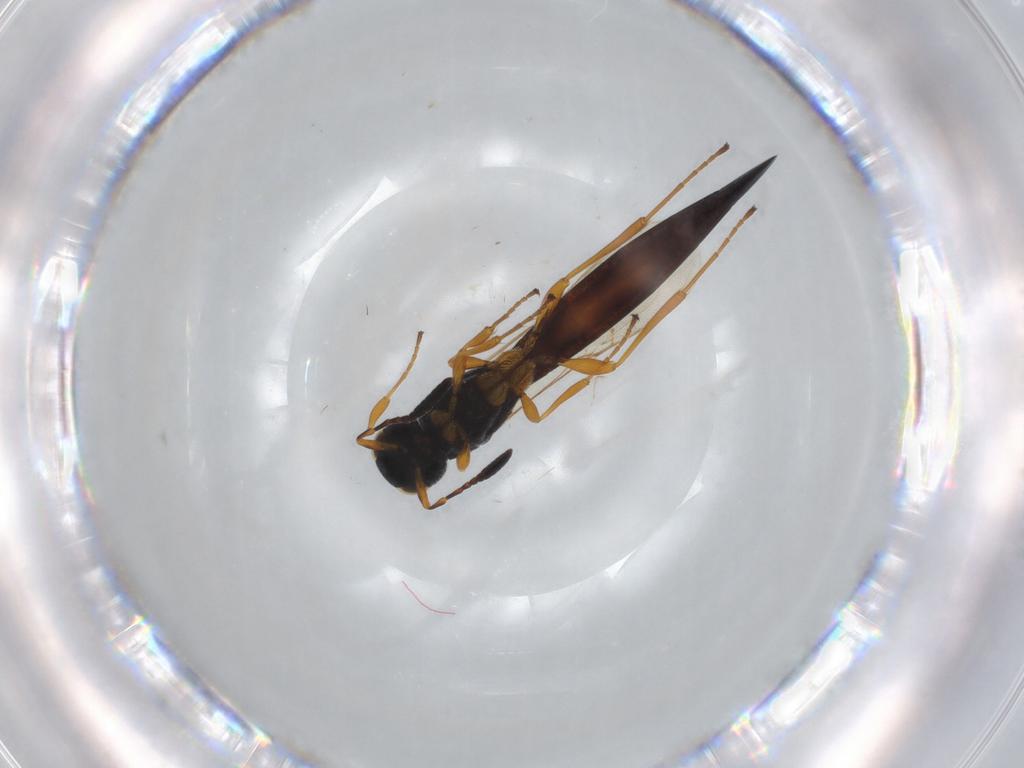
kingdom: Animalia
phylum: Arthropoda
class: Insecta
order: Hymenoptera
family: Scelionidae
